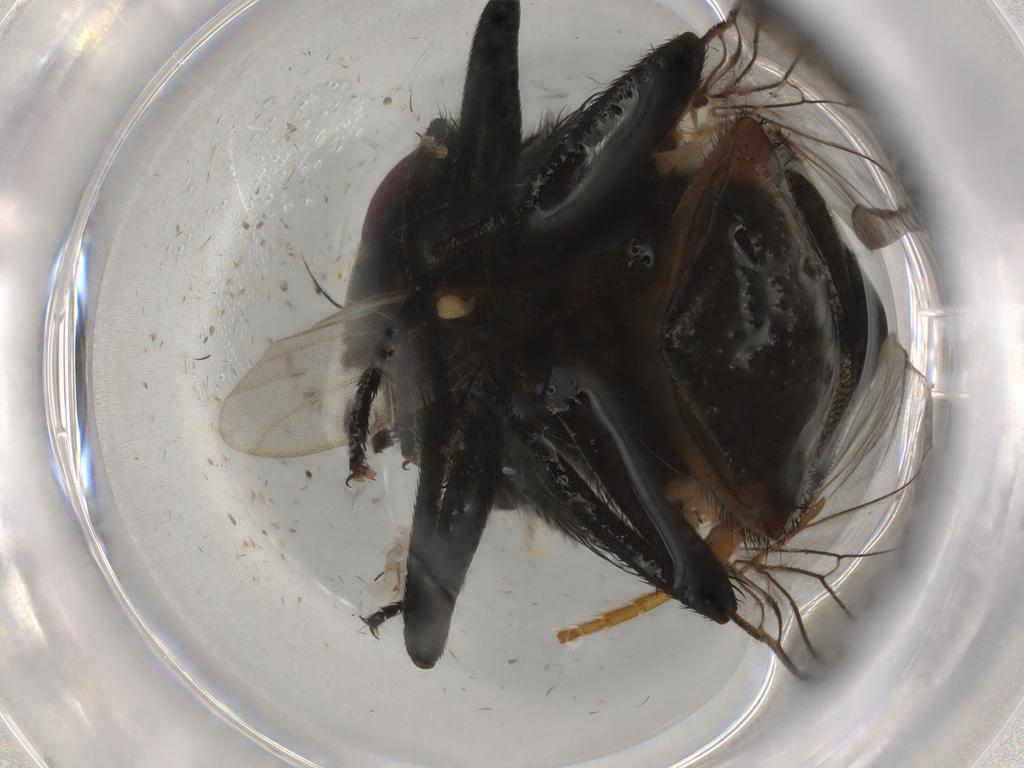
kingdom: Animalia
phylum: Arthropoda
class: Insecta
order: Diptera
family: Muscidae
